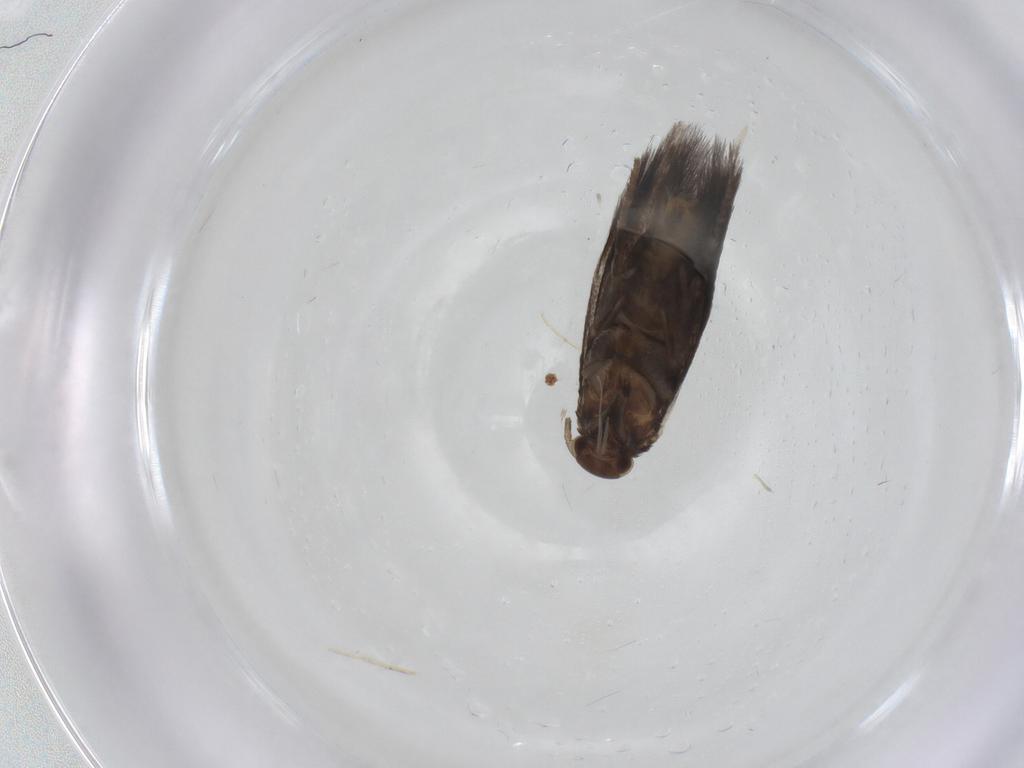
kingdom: Animalia
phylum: Arthropoda
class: Insecta
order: Lepidoptera
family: Elachistidae
